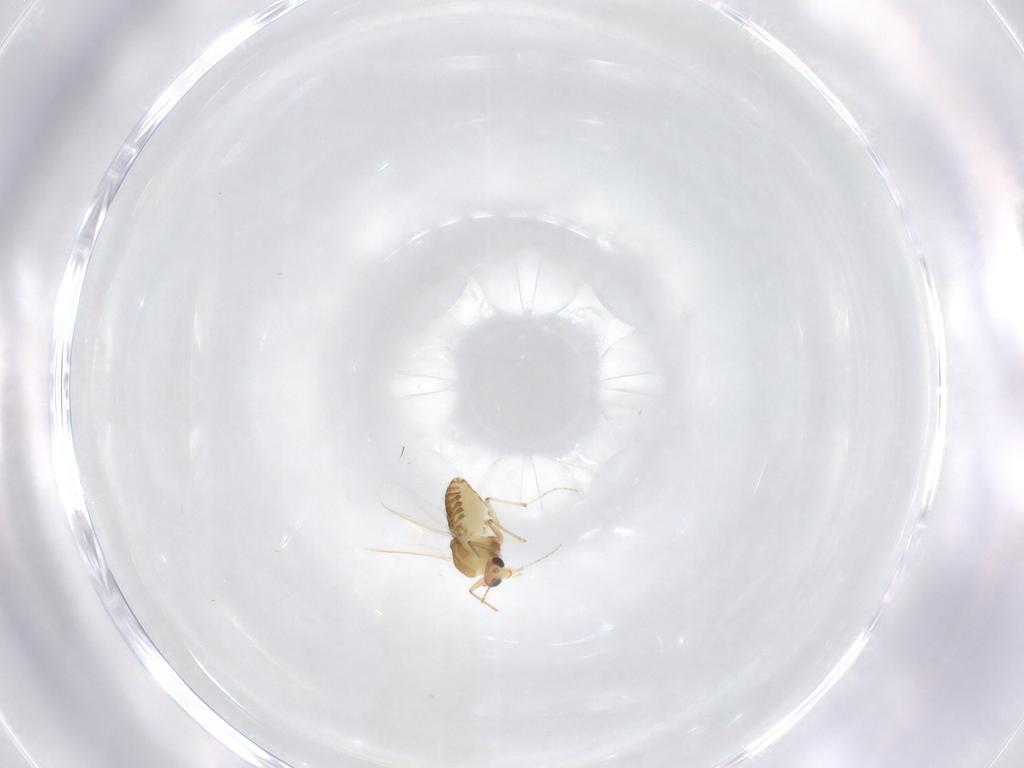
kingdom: Animalia
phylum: Arthropoda
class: Insecta
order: Diptera
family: Chironomidae
